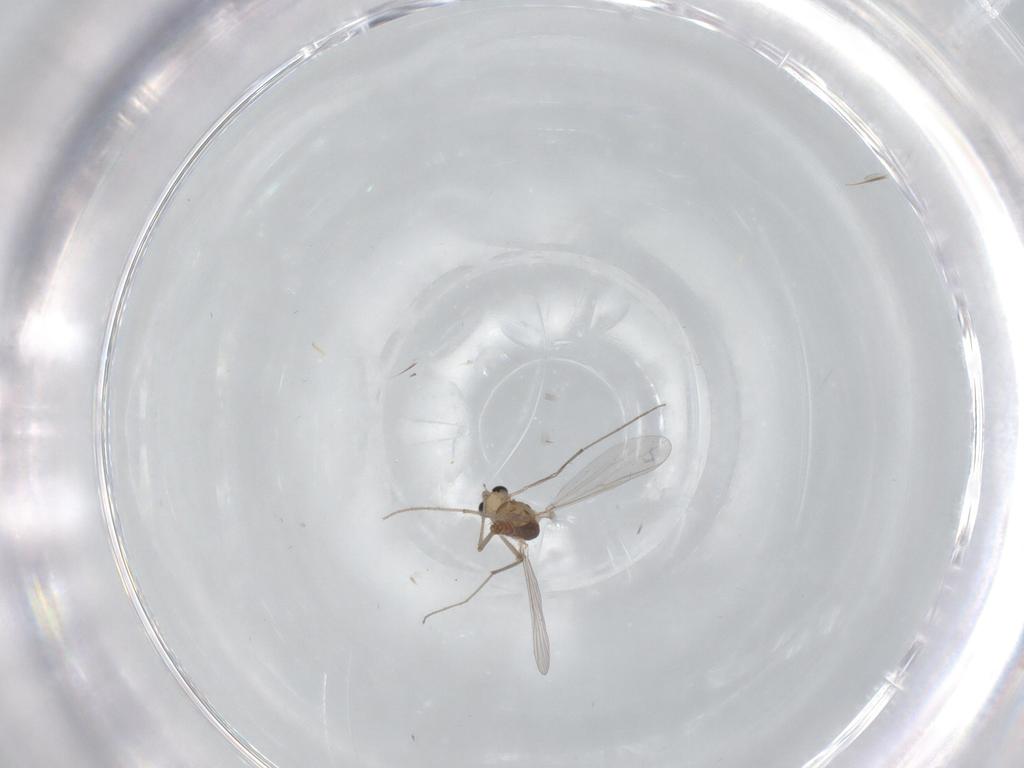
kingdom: Animalia
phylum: Arthropoda
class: Insecta
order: Diptera
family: Chironomidae
